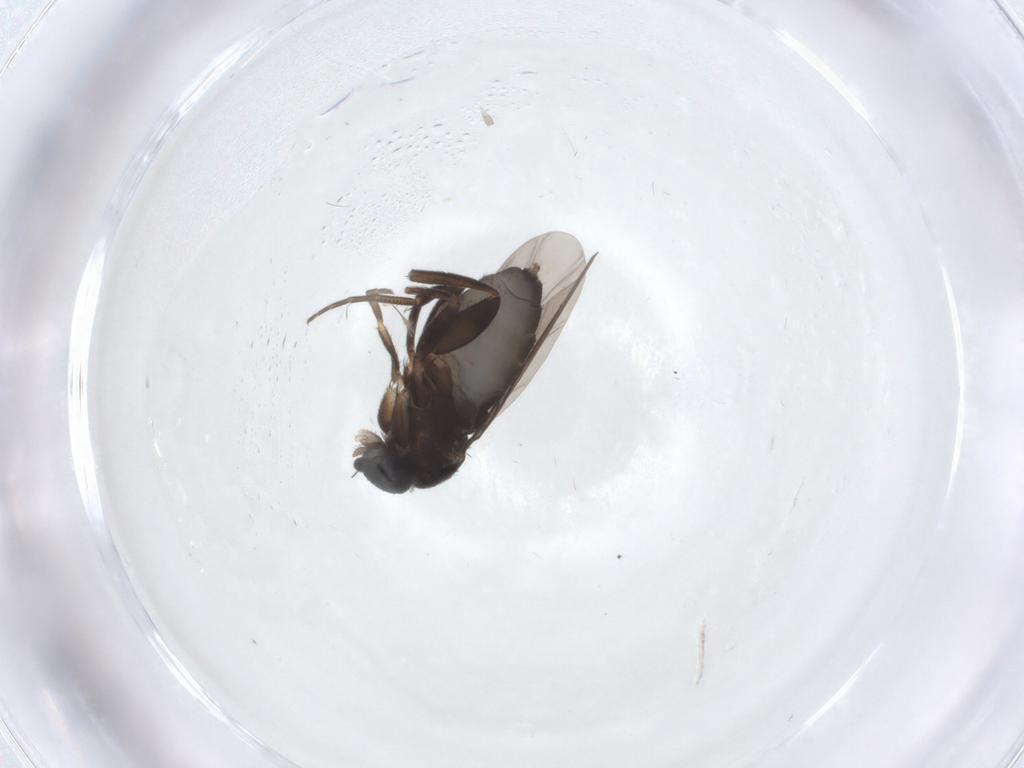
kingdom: Animalia
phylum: Arthropoda
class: Insecta
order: Diptera
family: Phoridae
